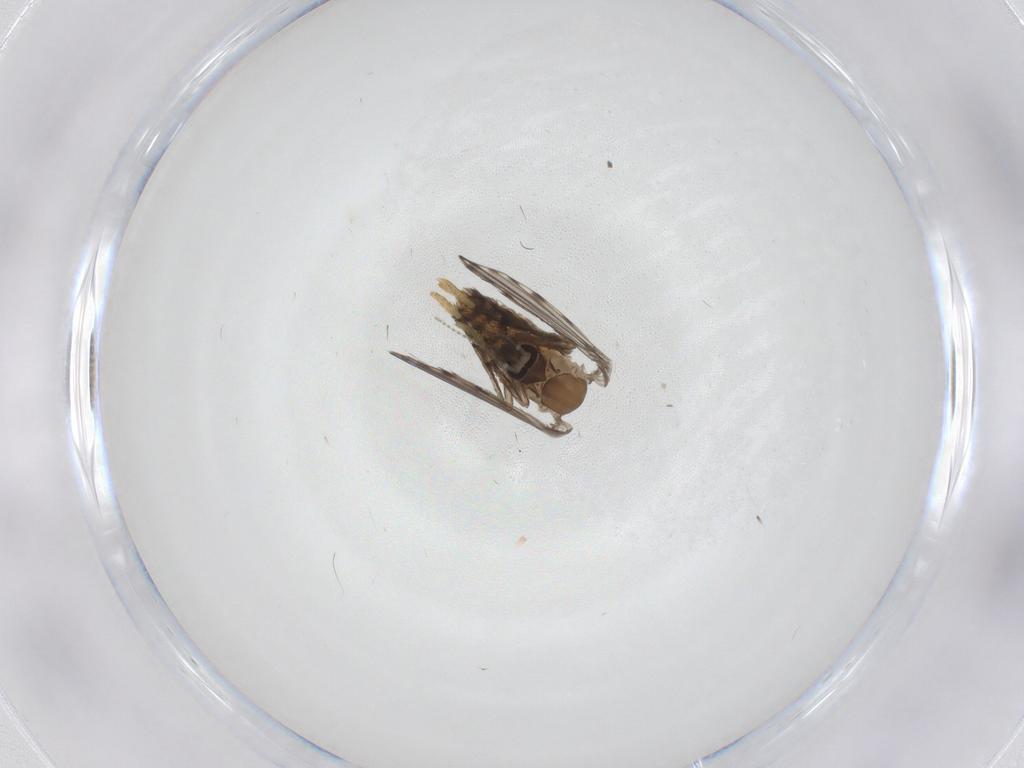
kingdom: Animalia
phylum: Arthropoda
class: Insecta
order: Diptera
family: Psychodidae
